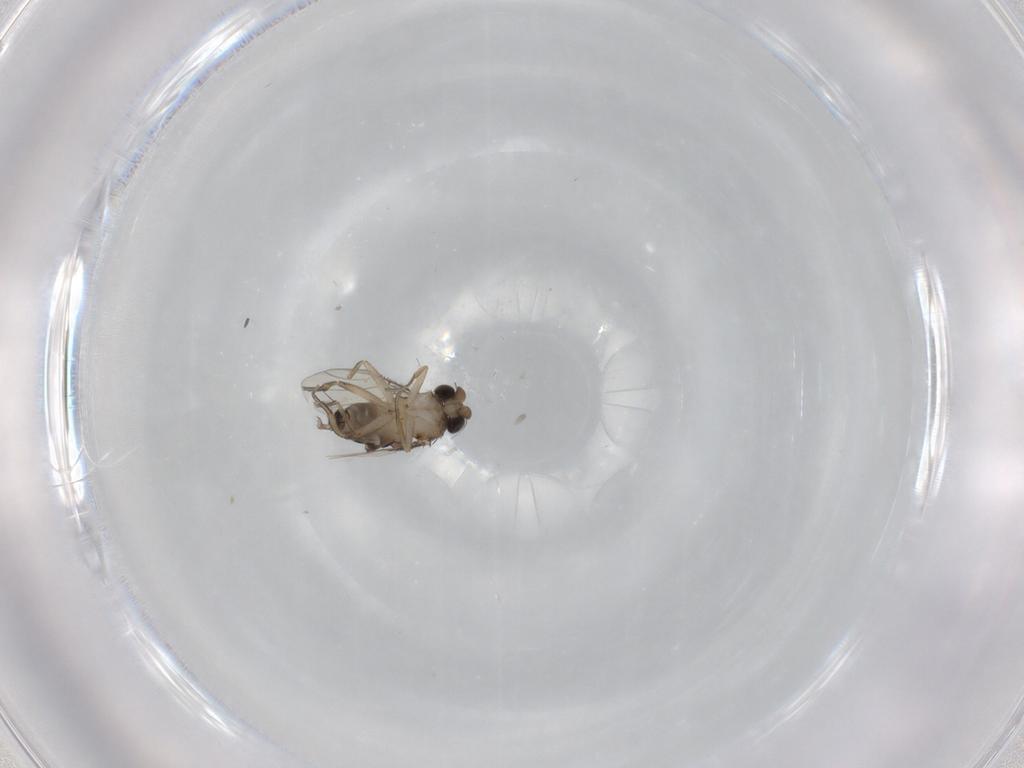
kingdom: Animalia
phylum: Arthropoda
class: Insecta
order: Diptera
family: Phoridae
